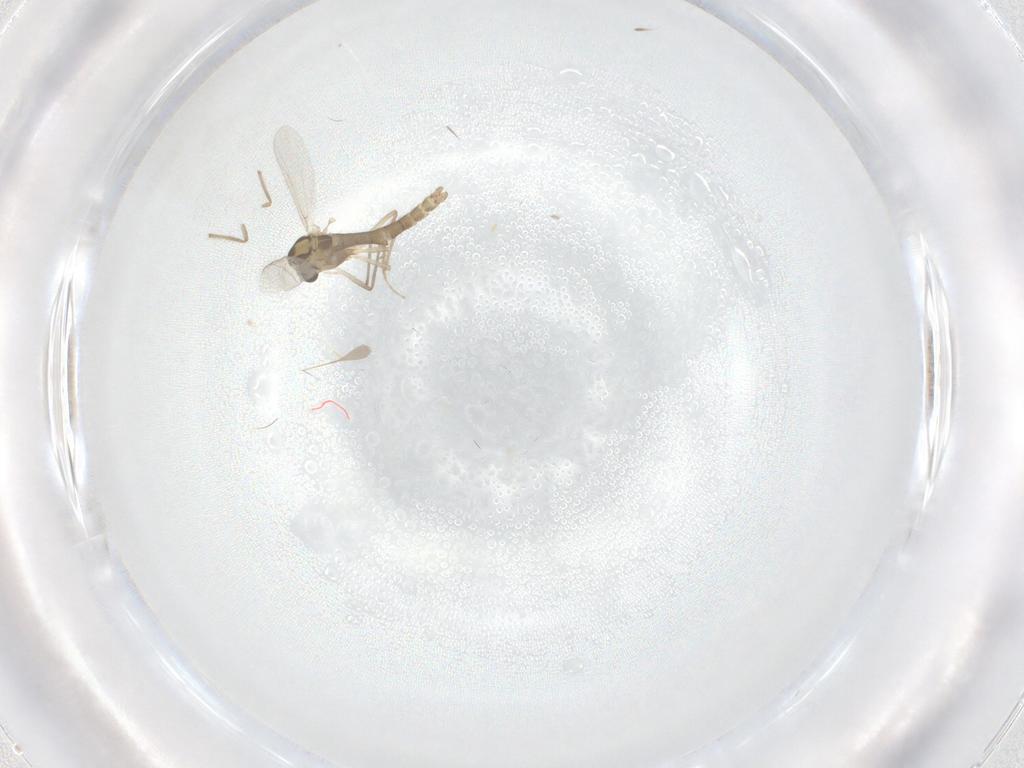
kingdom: Animalia
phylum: Arthropoda
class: Insecta
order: Diptera
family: Chironomidae
